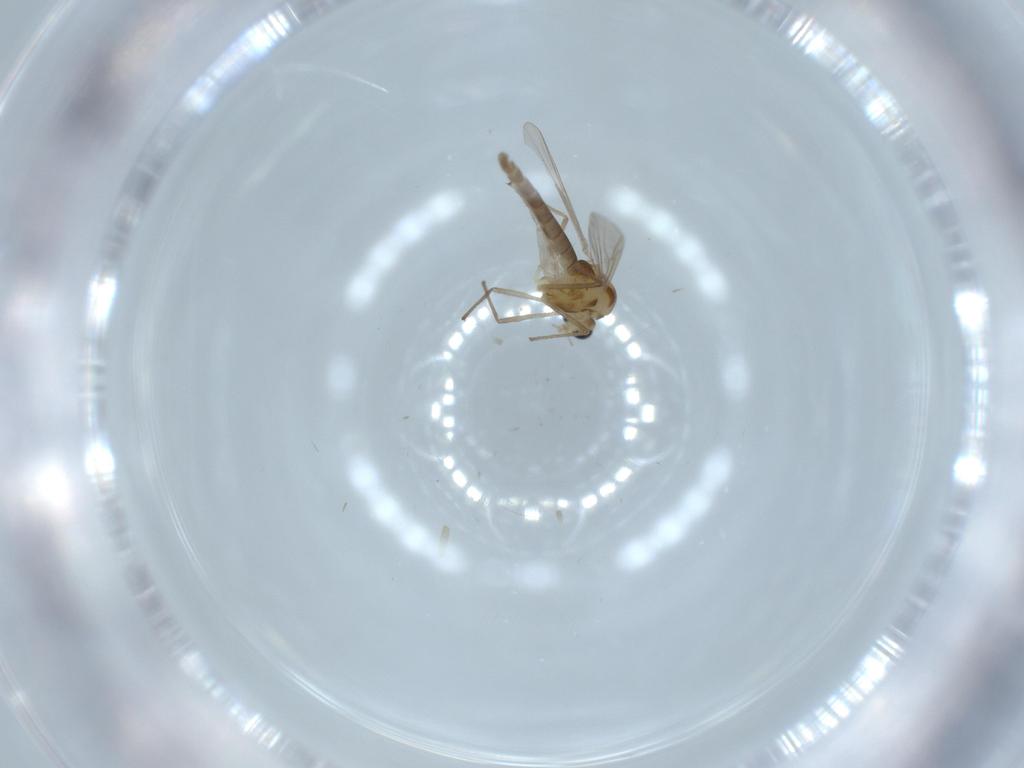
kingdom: Animalia
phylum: Arthropoda
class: Insecta
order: Diptera
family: Chironomidae
